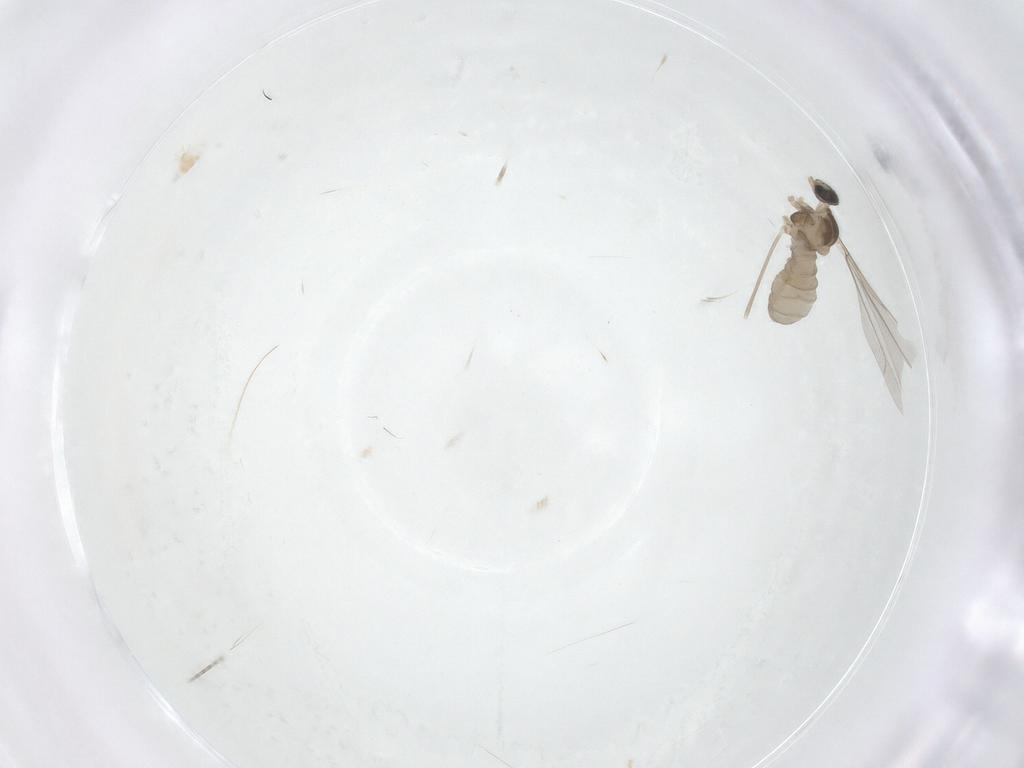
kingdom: Animalia
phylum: Arthropoda
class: Insecta
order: Diptera
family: Cecidomyiidae
